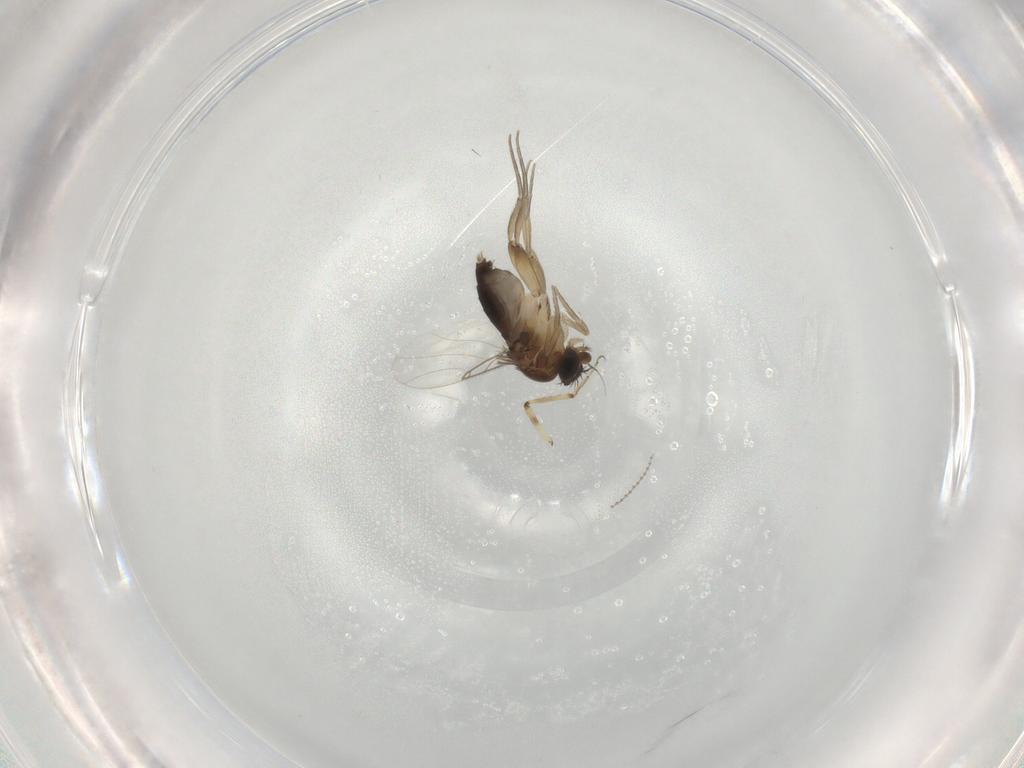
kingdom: Animalia
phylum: Arthropoda
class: Insecta
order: Diptera
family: Phoridae
